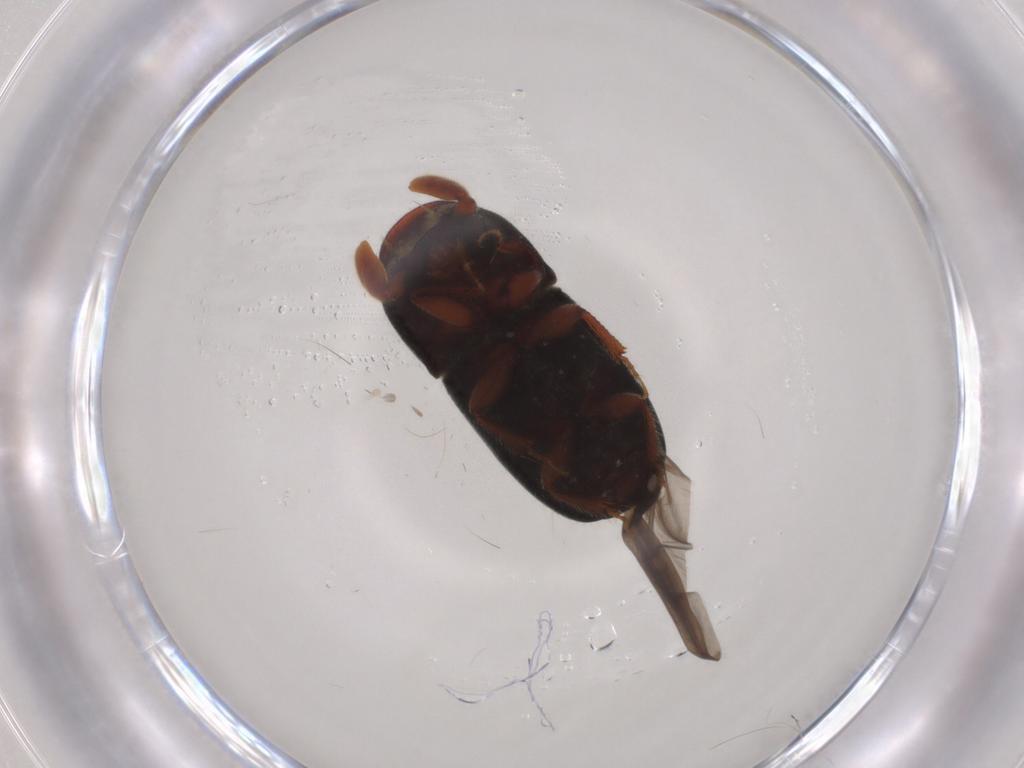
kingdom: Animalia
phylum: Arthropoda
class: Insecta
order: Coleoptera
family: Curculionidae
